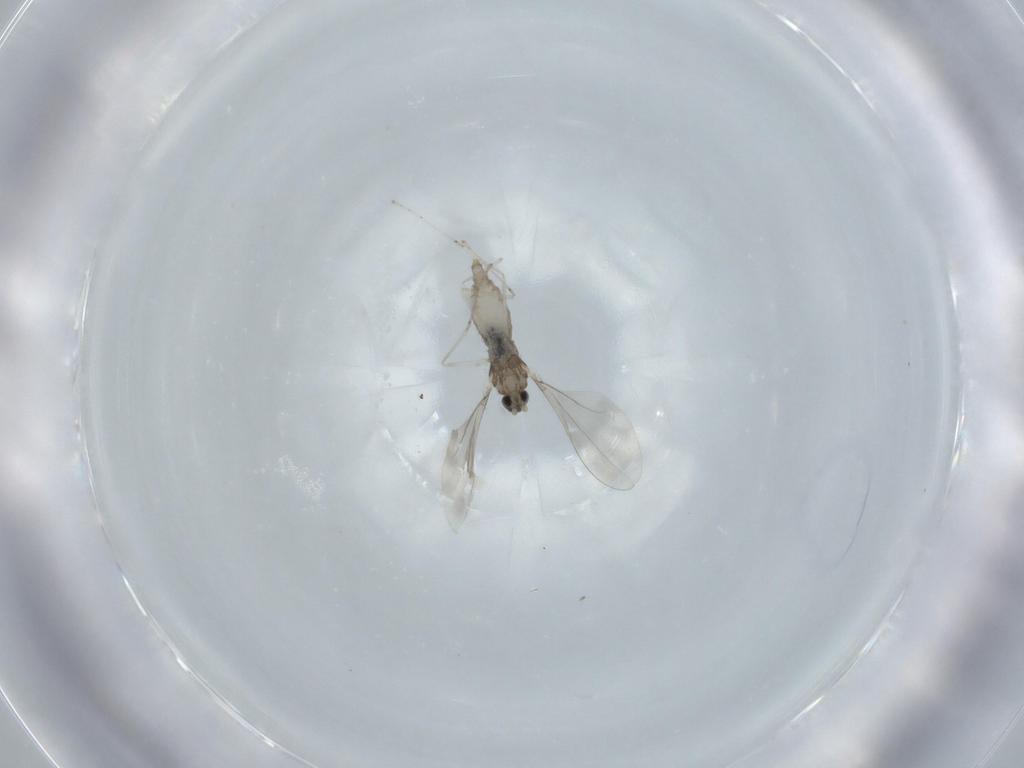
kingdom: Animalia
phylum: Arthropoda
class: Insecta
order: Diptera
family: Cecidomyiidae
